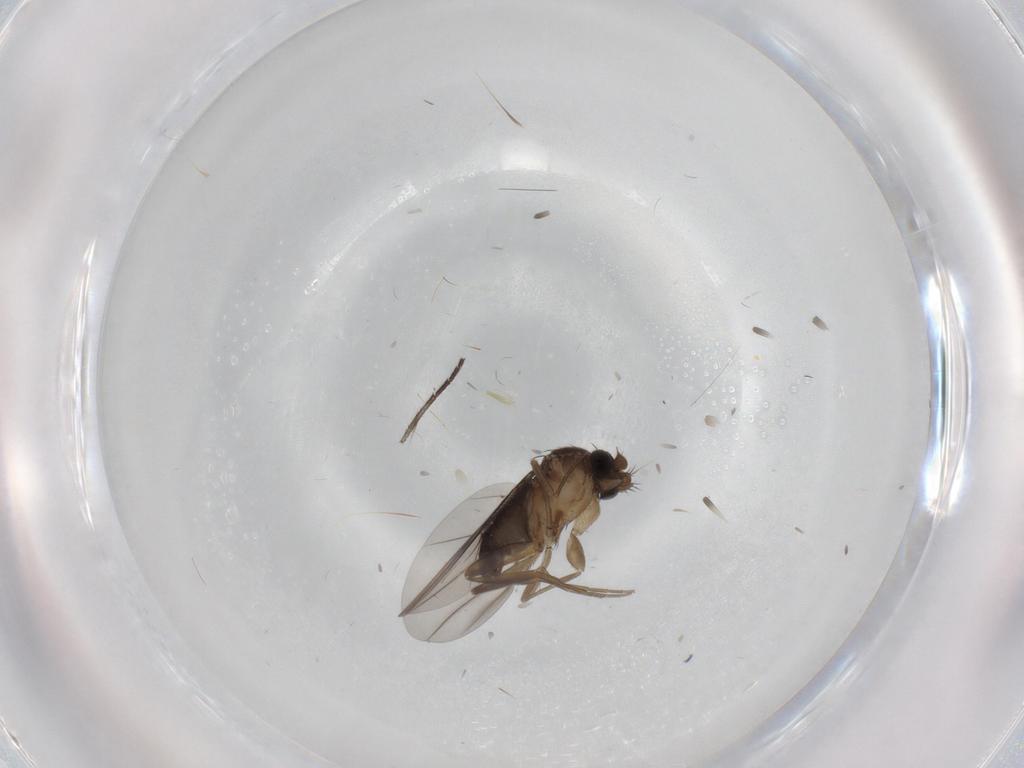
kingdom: Animalia
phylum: Arthropoda
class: Insecta
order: Diptera
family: Phoridae
